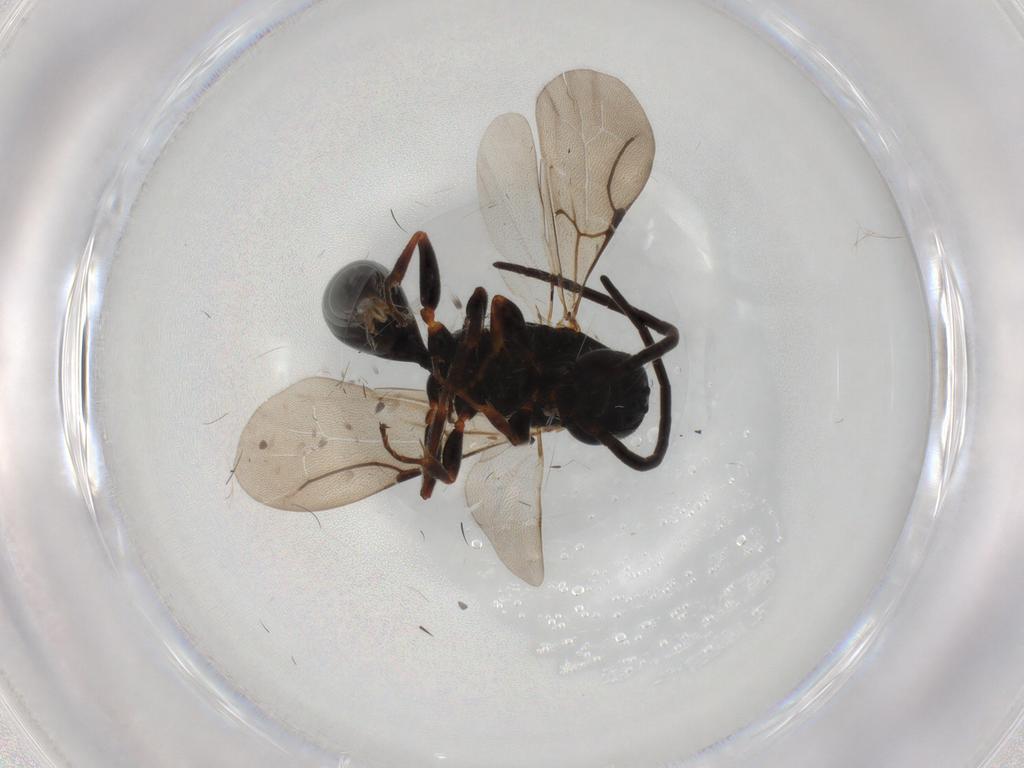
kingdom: Animalia
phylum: Arthropoda
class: Insecta
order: Hymenoptera
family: Bethylidae
